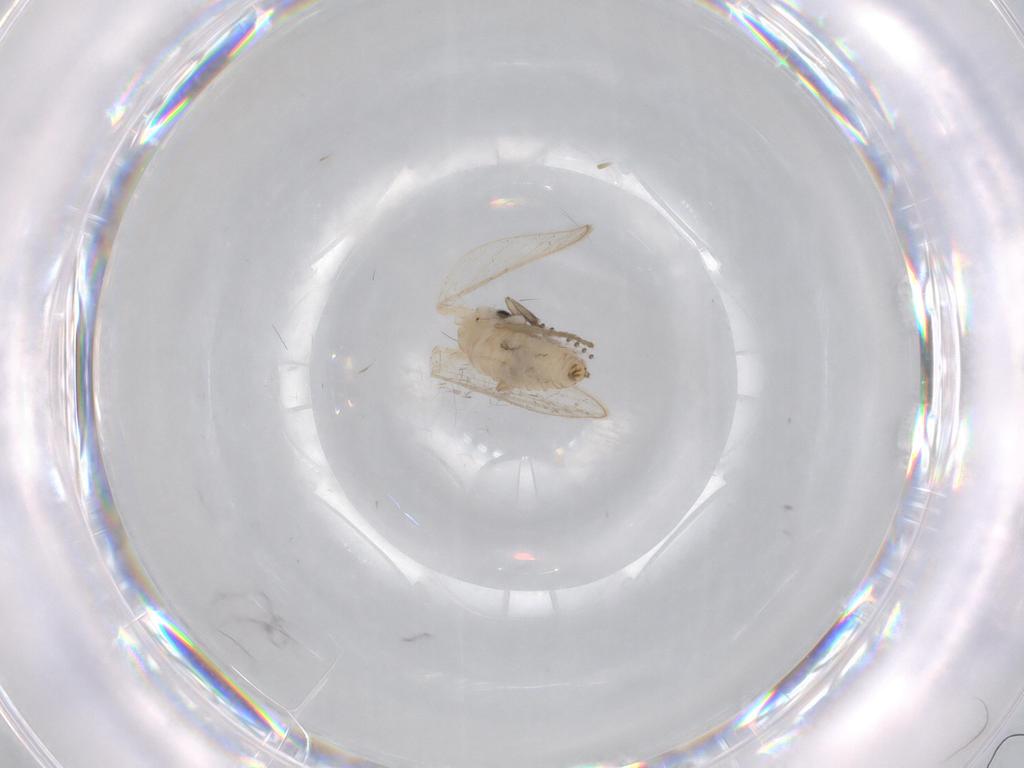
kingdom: Animalia
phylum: Arthropoda
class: Insecta
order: Diptera
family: Psychodidae
